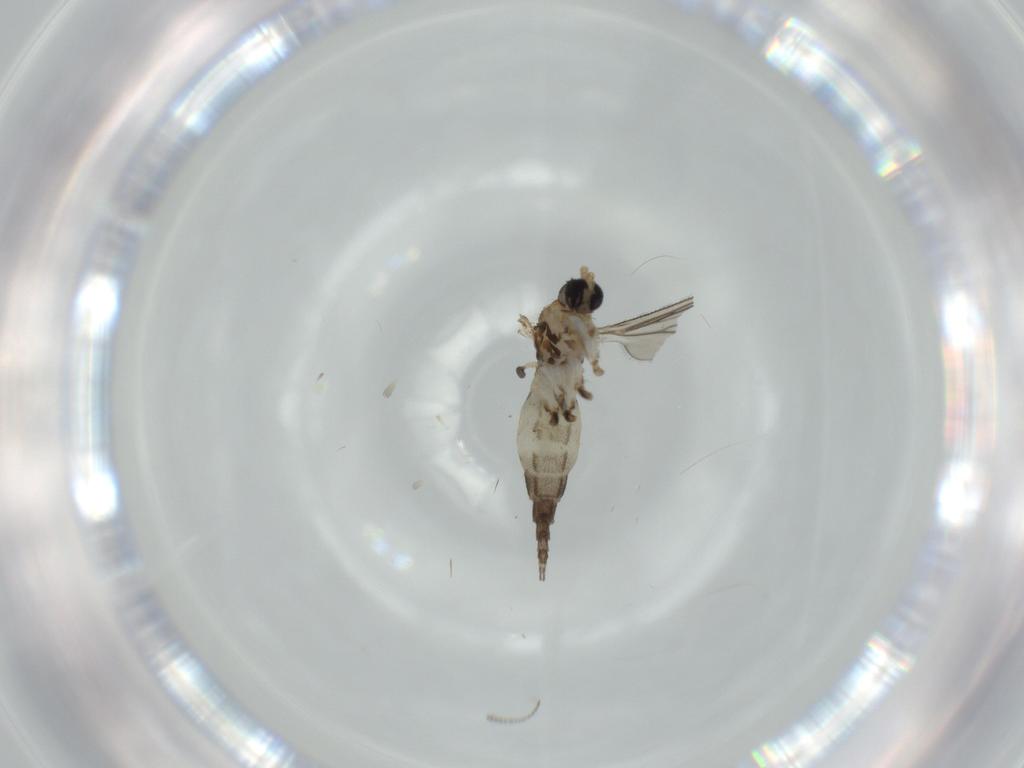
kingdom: Animalia
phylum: Arthropoda
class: Insecta
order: Diptera
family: Sciaridae
